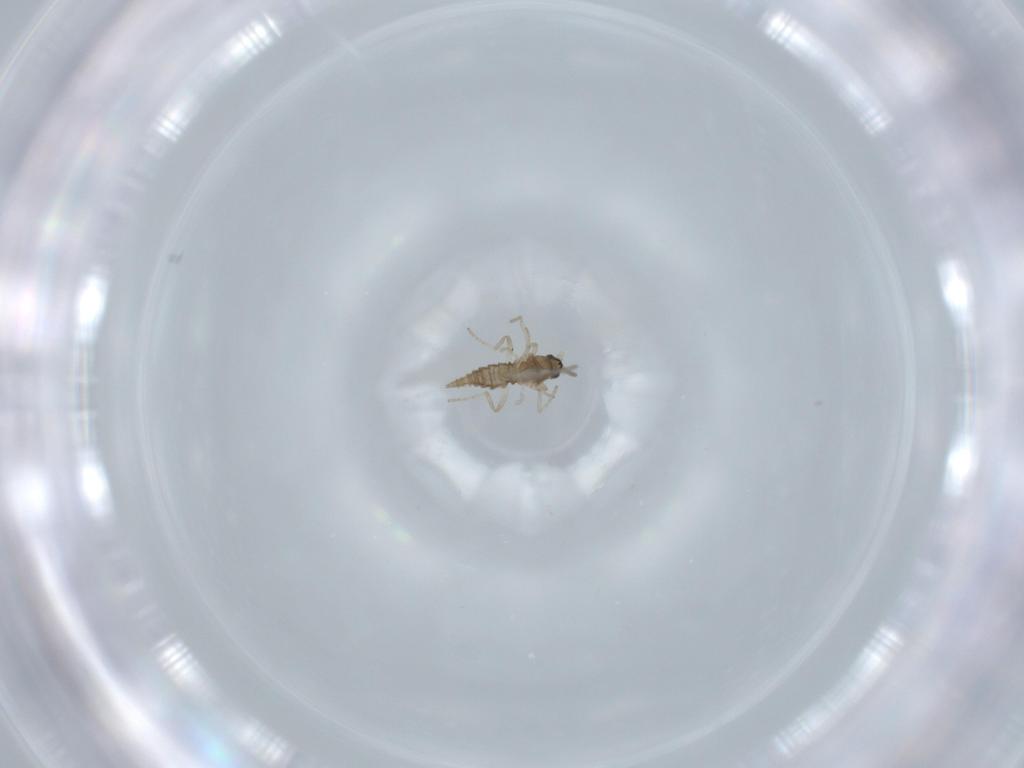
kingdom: Animalia
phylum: Arthropoda
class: Insecta
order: Diptera
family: Cecidomyiidae
